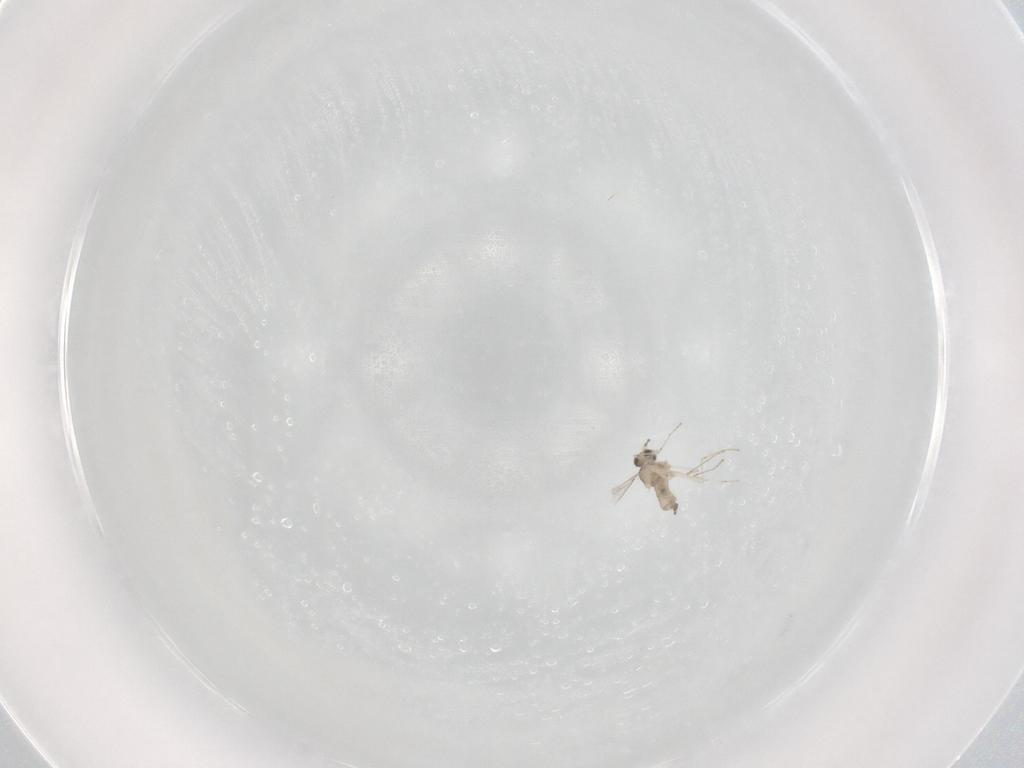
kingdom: Animalia
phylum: Arthropoda
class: Insecta
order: Diptera
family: Cecidomyiidae
